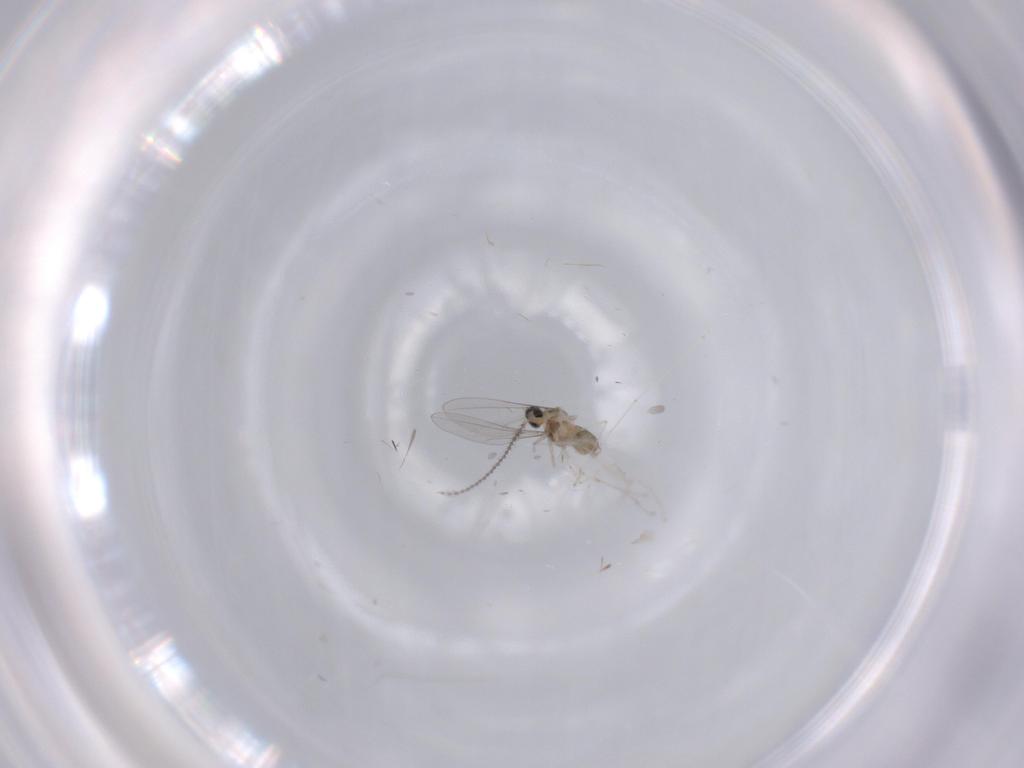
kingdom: Animalia
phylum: Arthropoda
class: Insecta
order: Diptera
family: Cecidomyiidae
